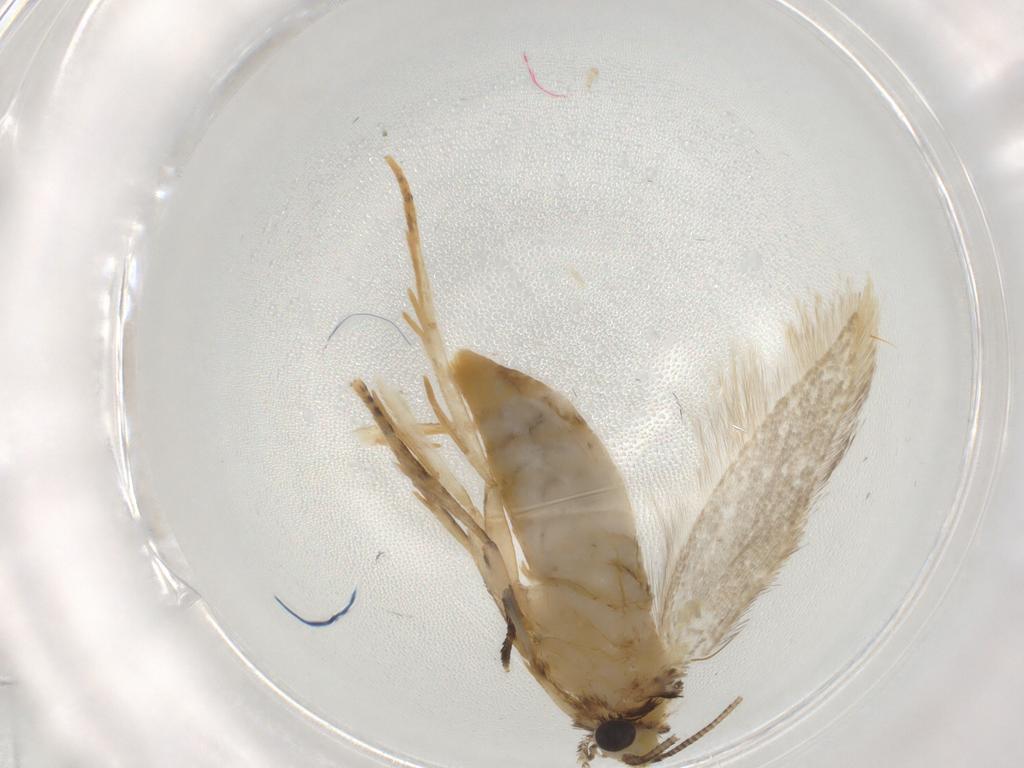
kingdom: Animalia
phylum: Arthropoda
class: Insecta
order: Lepidoptera
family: Tineidae
